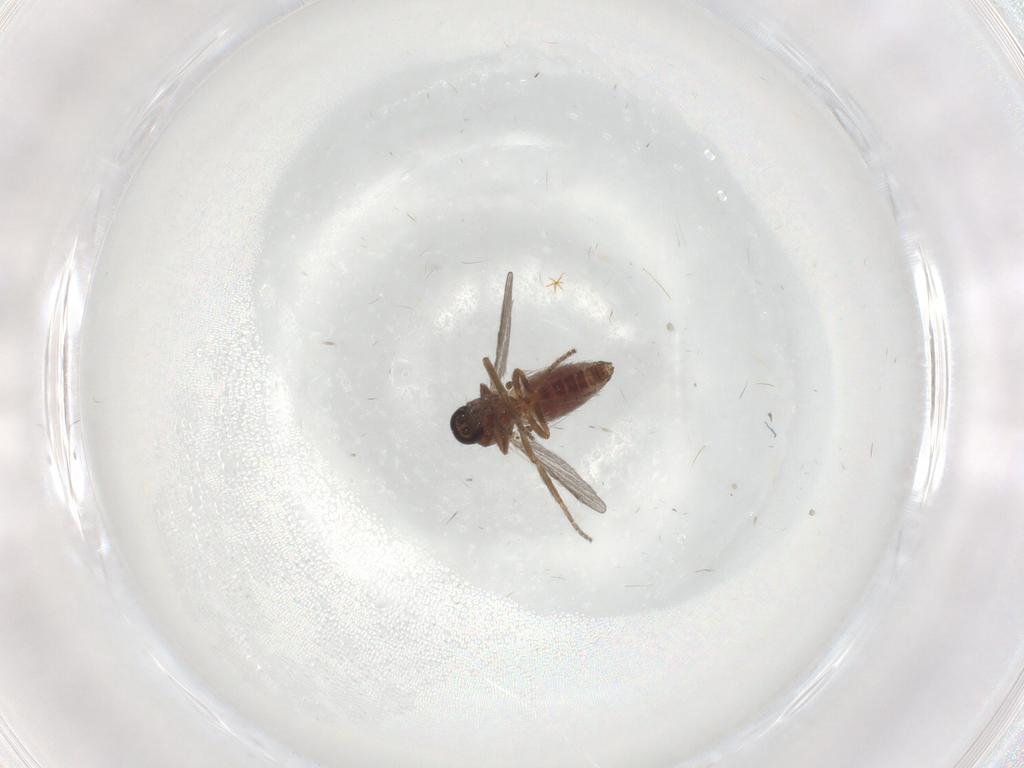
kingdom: Animalia
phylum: Arthropoda
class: Insecta
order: Diptera
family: Ceratopogonidae
